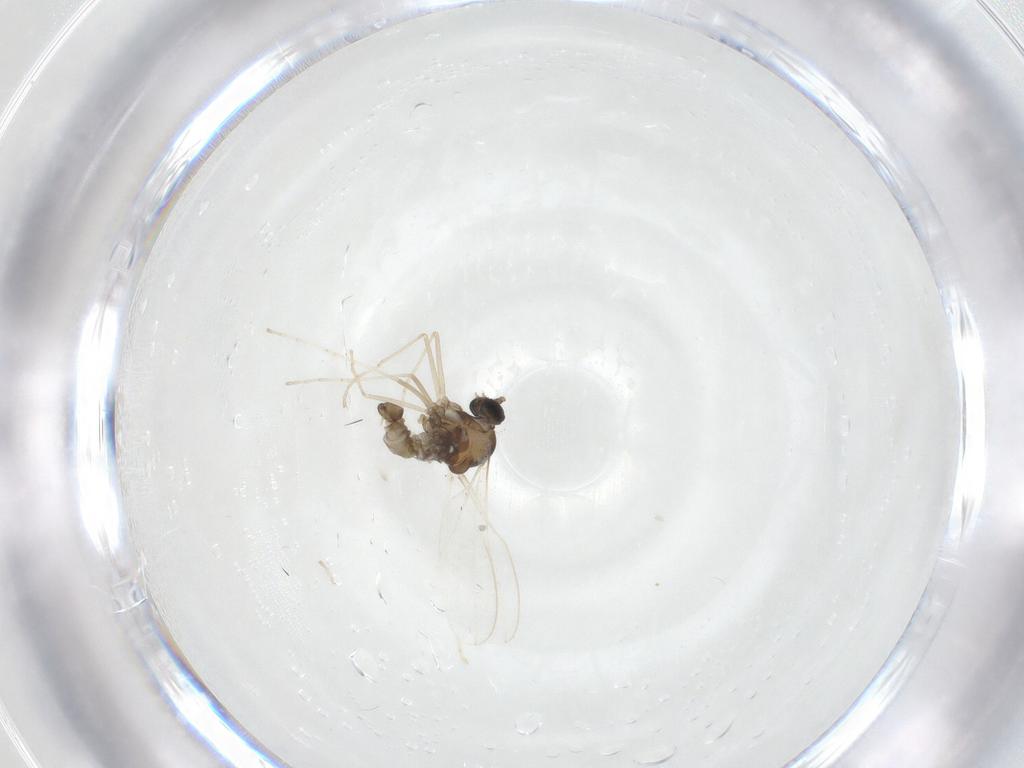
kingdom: Animalia
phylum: Arthropoda
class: Insecta
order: Diptera
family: Cecidomyiidae
